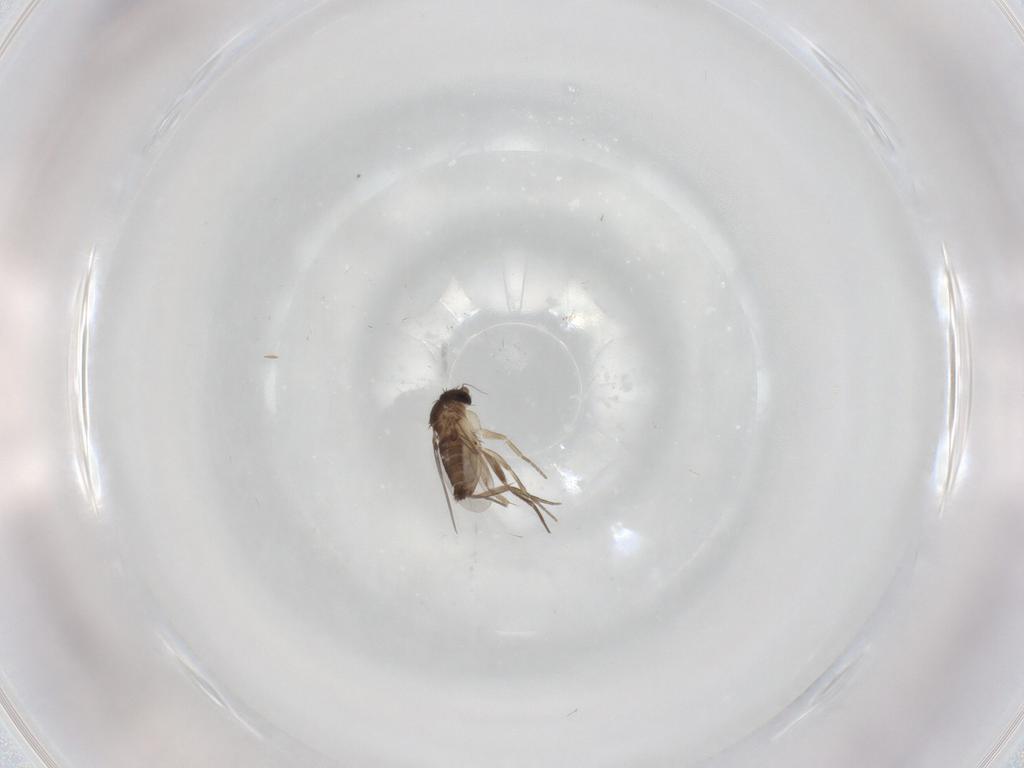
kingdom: Animalia
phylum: Arthropoda
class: Insecta
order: Diptera
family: Phoridae
